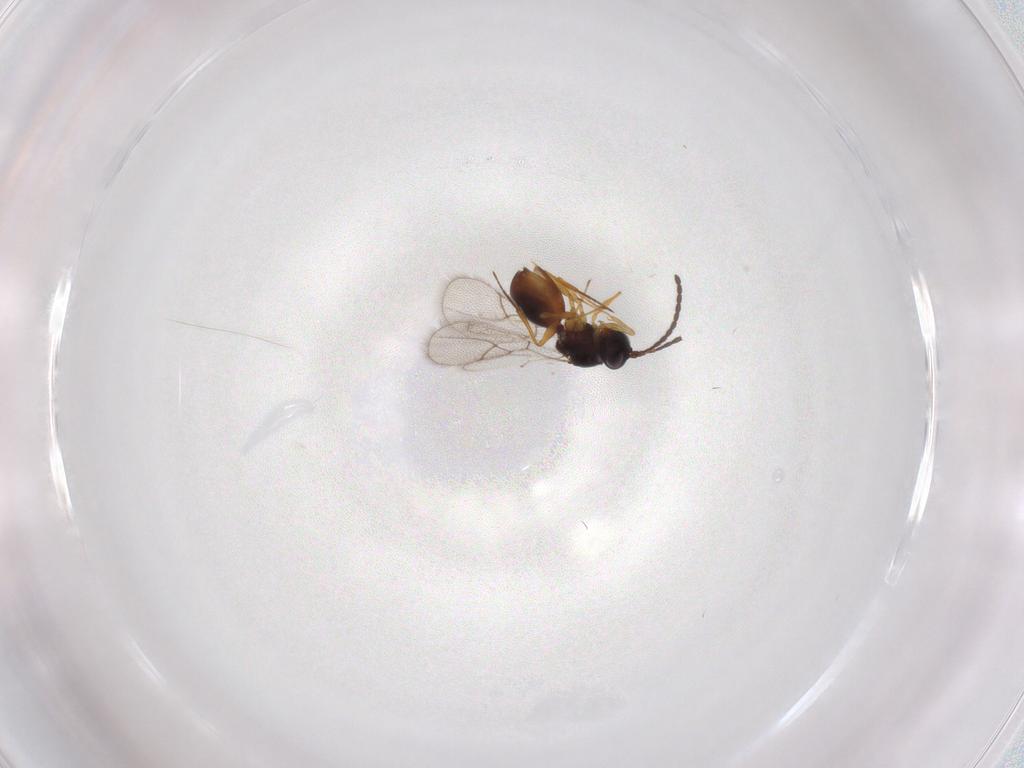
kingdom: Animalia
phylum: Arthropoda
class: Insecta
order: Hymenoptera
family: Figitidae
